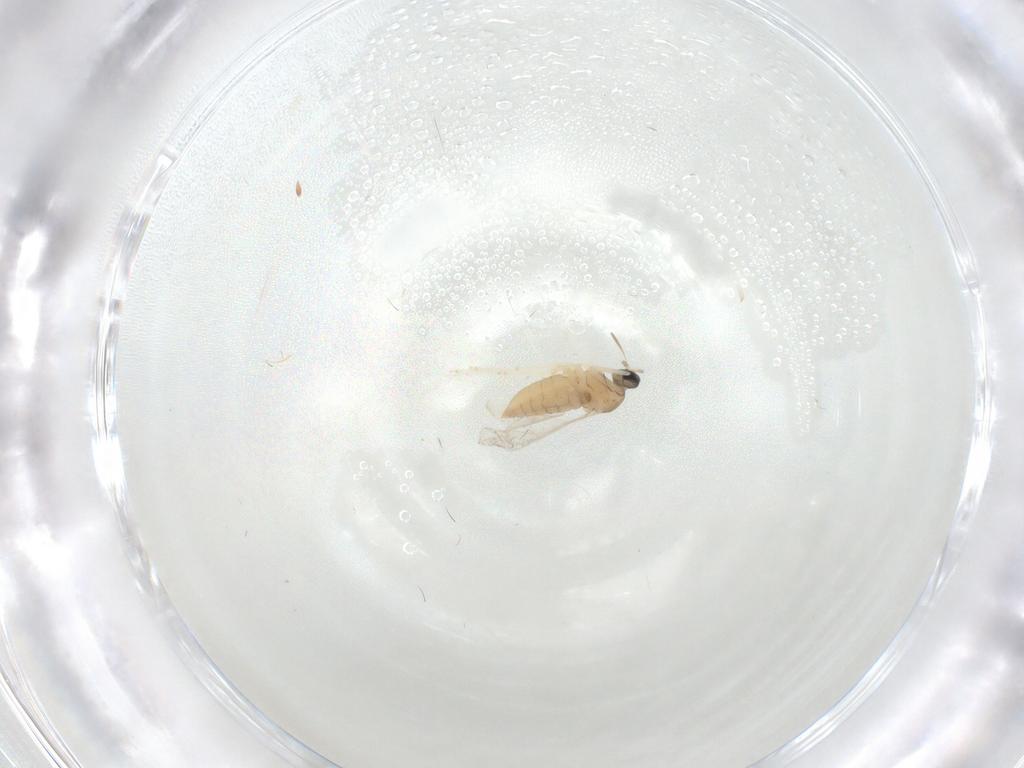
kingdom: Animalia
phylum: Arthropoda
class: Insecta
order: Diptera
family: Cecidomyiidae
